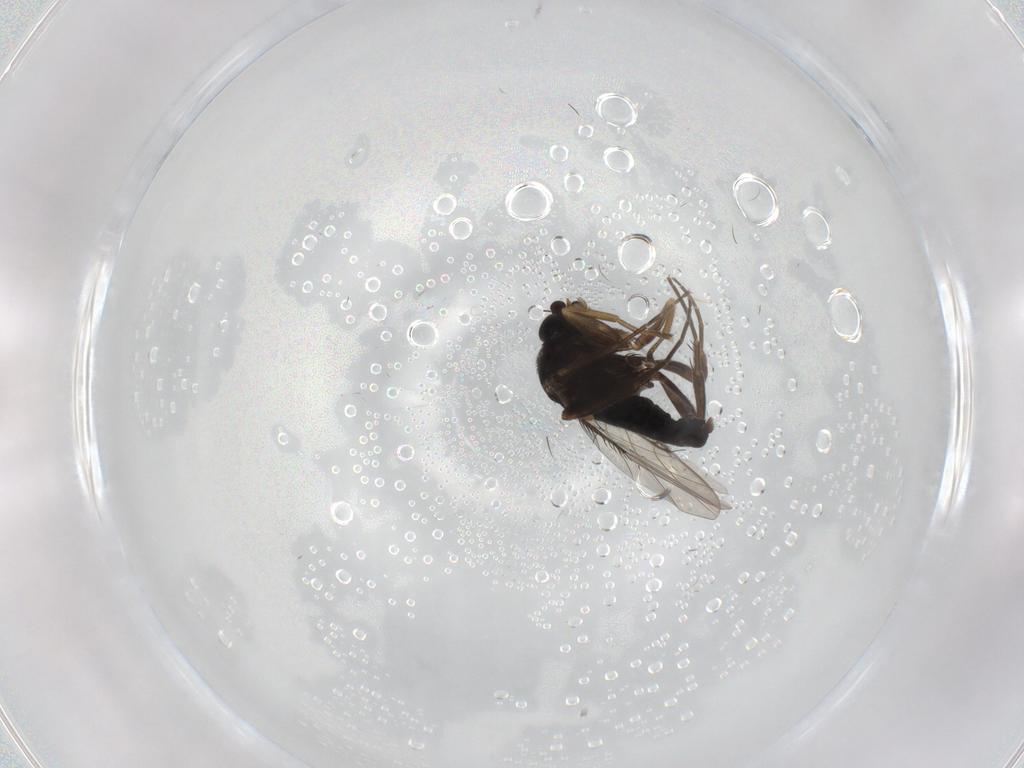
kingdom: Animalia
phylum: Arthropoda
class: Insecta
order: Diptera
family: Phoridae
